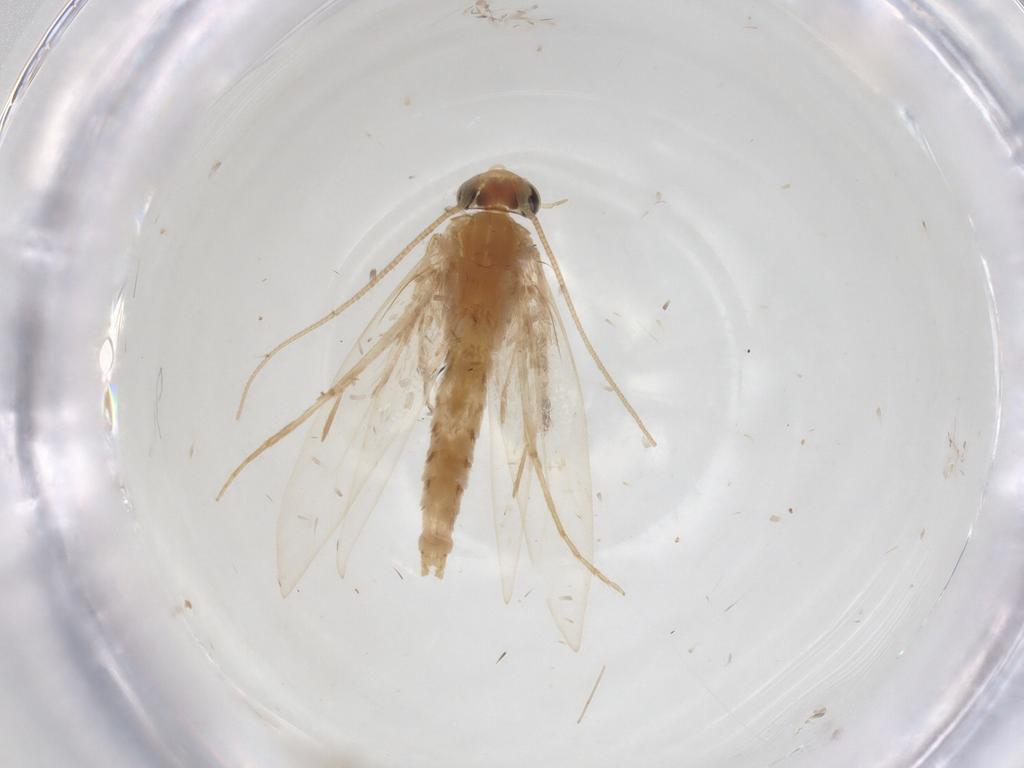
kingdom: Animalia
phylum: Arthropoda
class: Insecta
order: Lepidoptera
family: Tineidae
